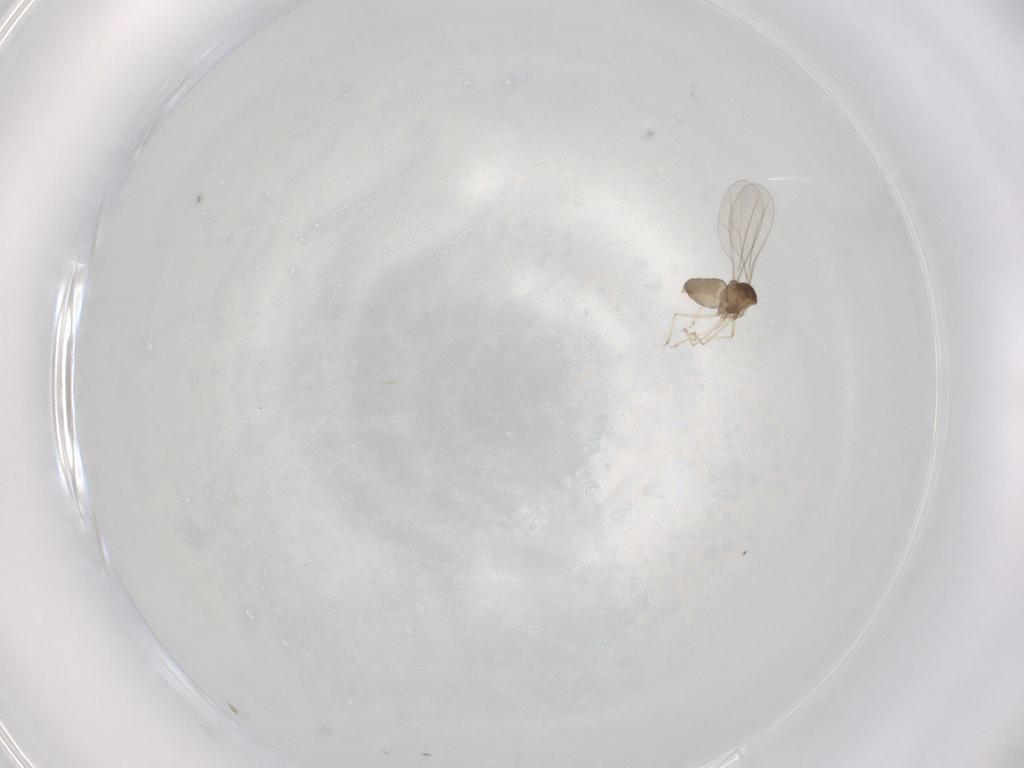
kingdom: Animalia
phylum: Arthropoda
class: Insecta
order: Diptera
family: Cecidomyiidae
